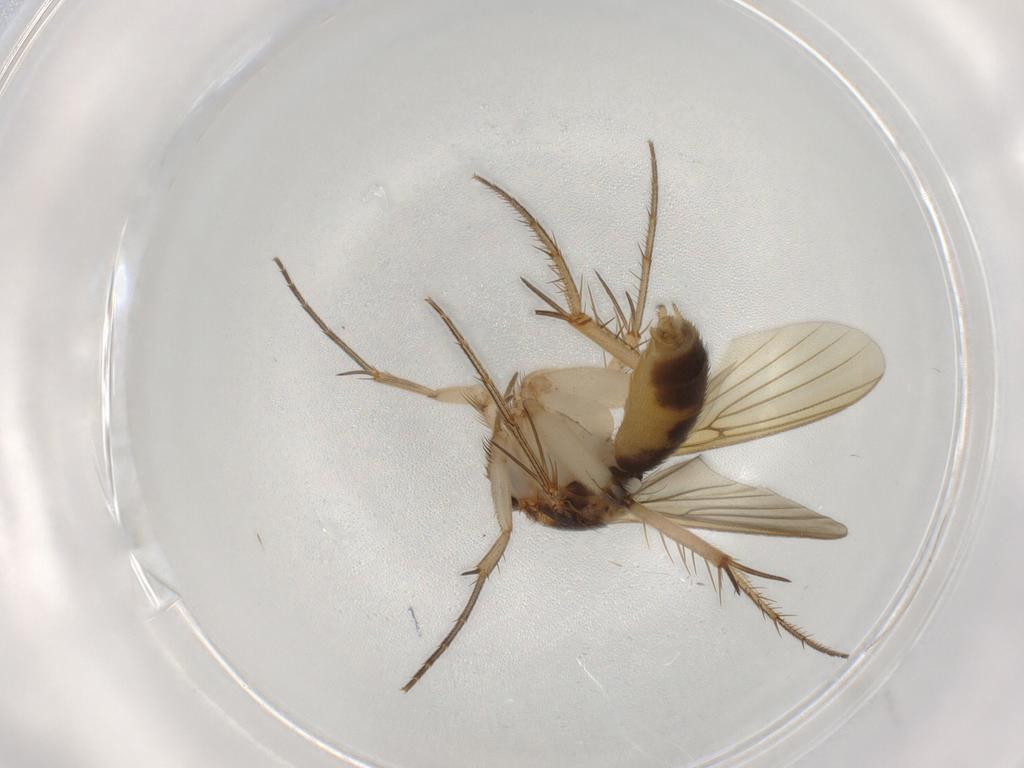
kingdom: Animalia
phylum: Arthropoda
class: Insecta
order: Diptera
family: Mycetophilidae
